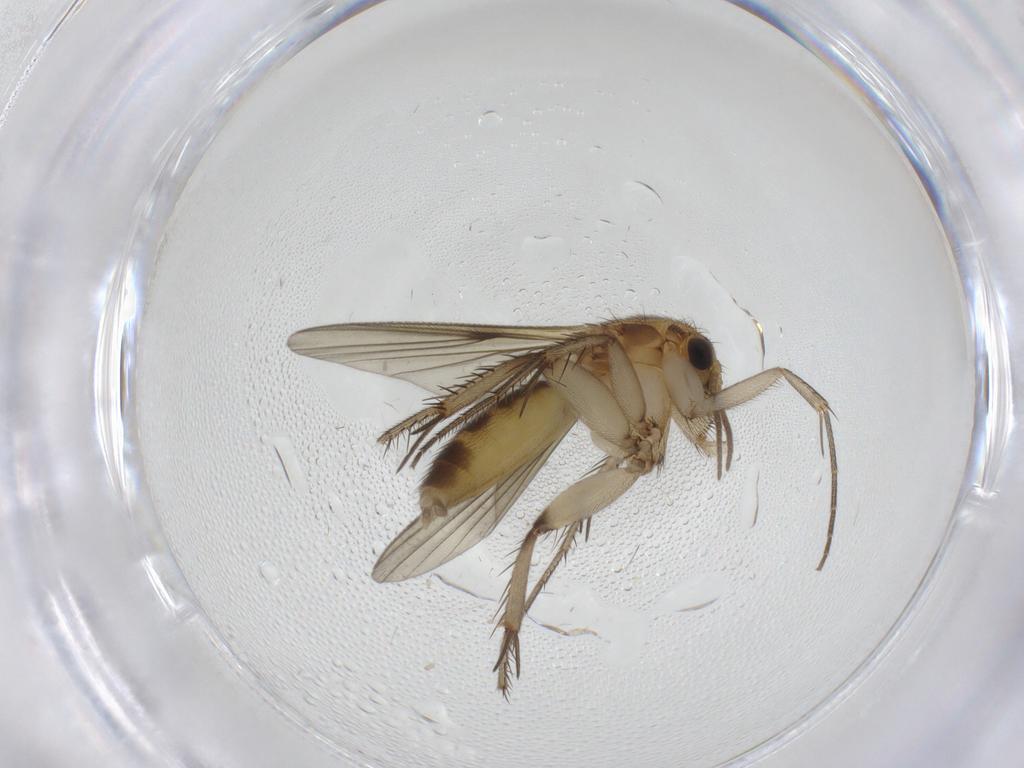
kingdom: Animalia
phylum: Arthropoda
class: Insecta
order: Diptera
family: Mycetophilidae
